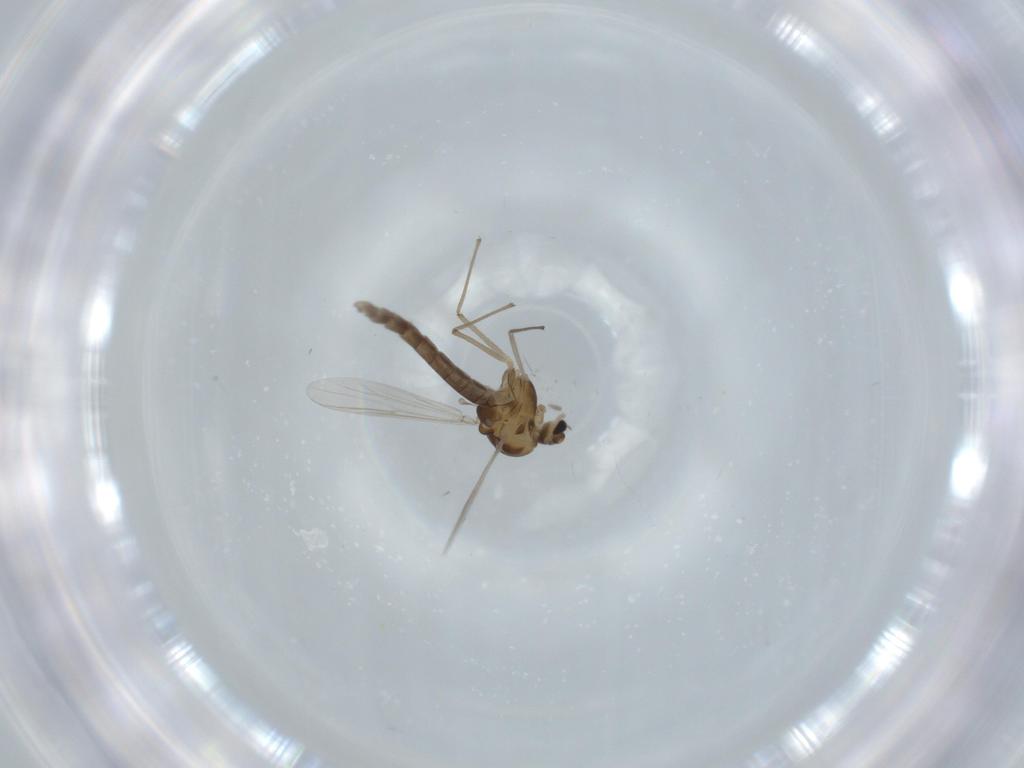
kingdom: Animalia
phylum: Arthropoda
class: Insecta
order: Diptera
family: Chironomidae
